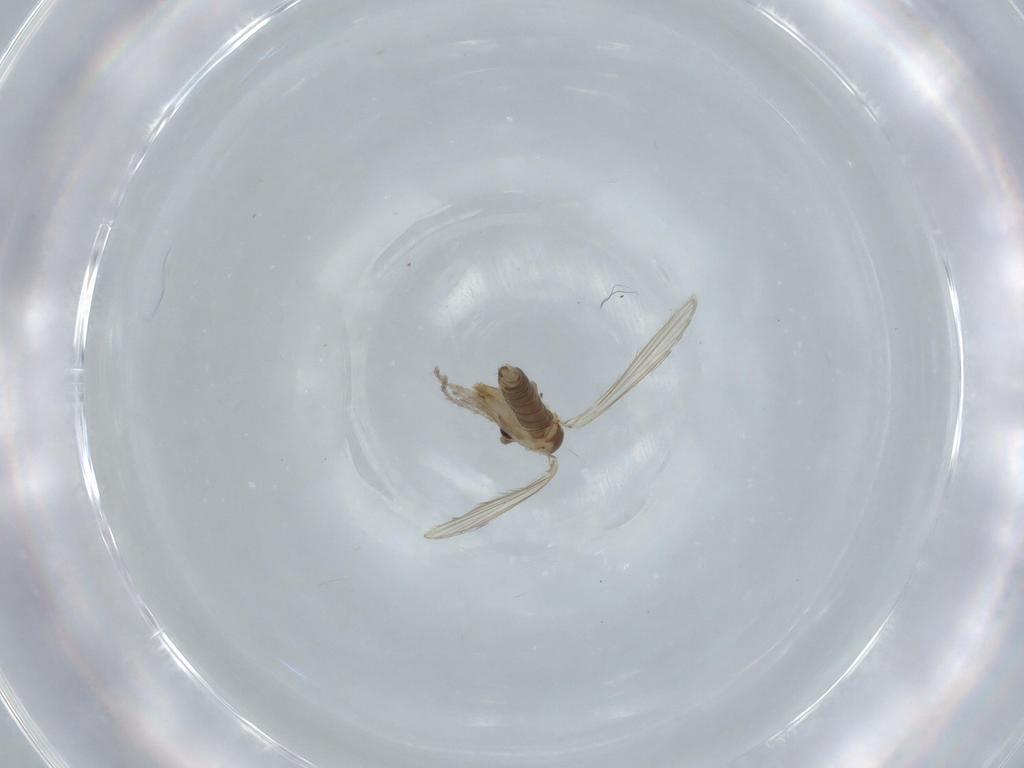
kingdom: Animalia
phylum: Arthropoda
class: Insecta
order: Diptera
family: Psychodidae
